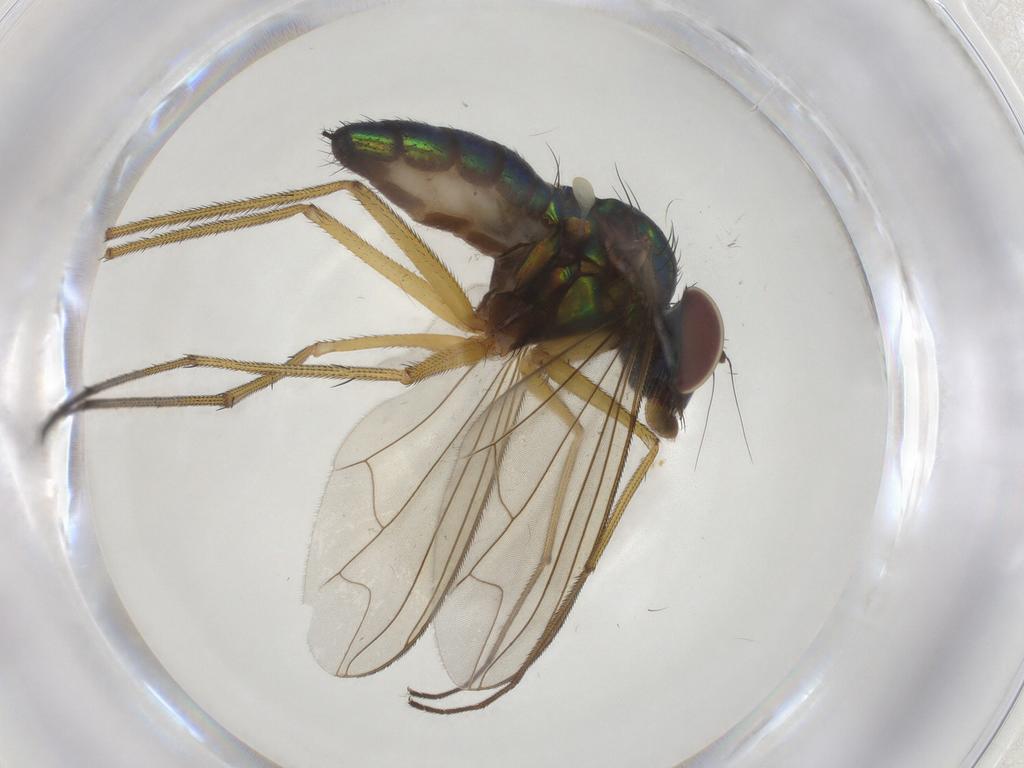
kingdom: Animalia
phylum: Arthropoda
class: Insecta
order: Diptera
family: Dolichopodidae
